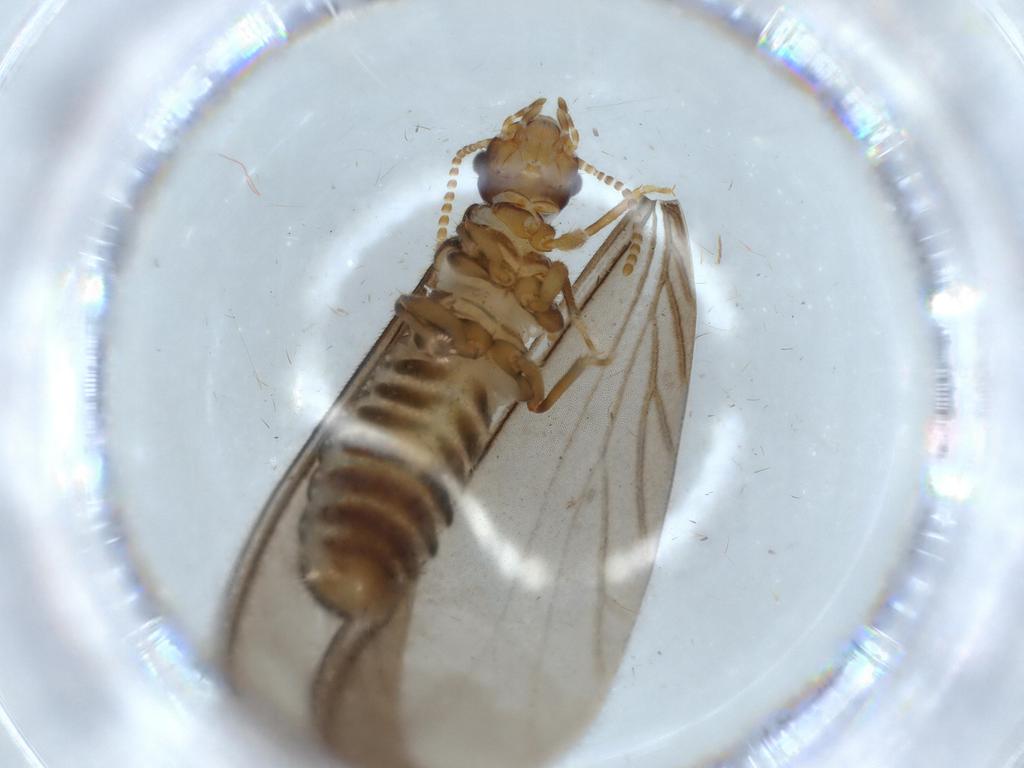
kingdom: Animalia
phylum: Arthropoda
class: Insecta
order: Blattodea
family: Termitidae
